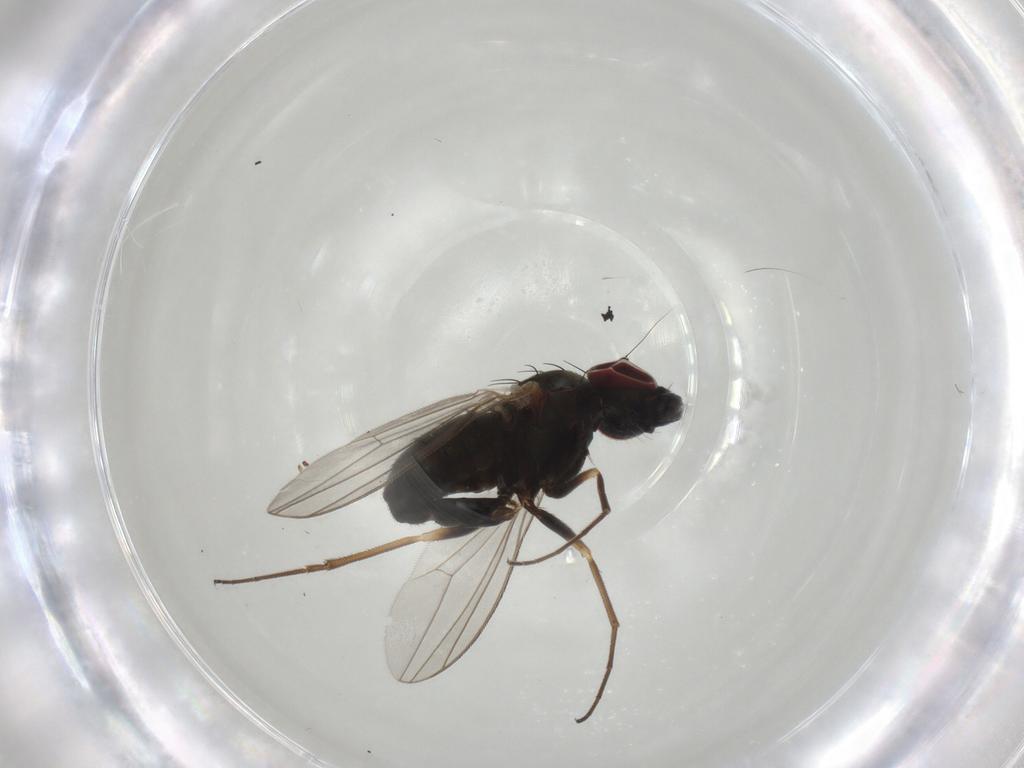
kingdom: Animalia
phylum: Arthropoda
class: Insecta
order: Diptera
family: Dolichopodidae
